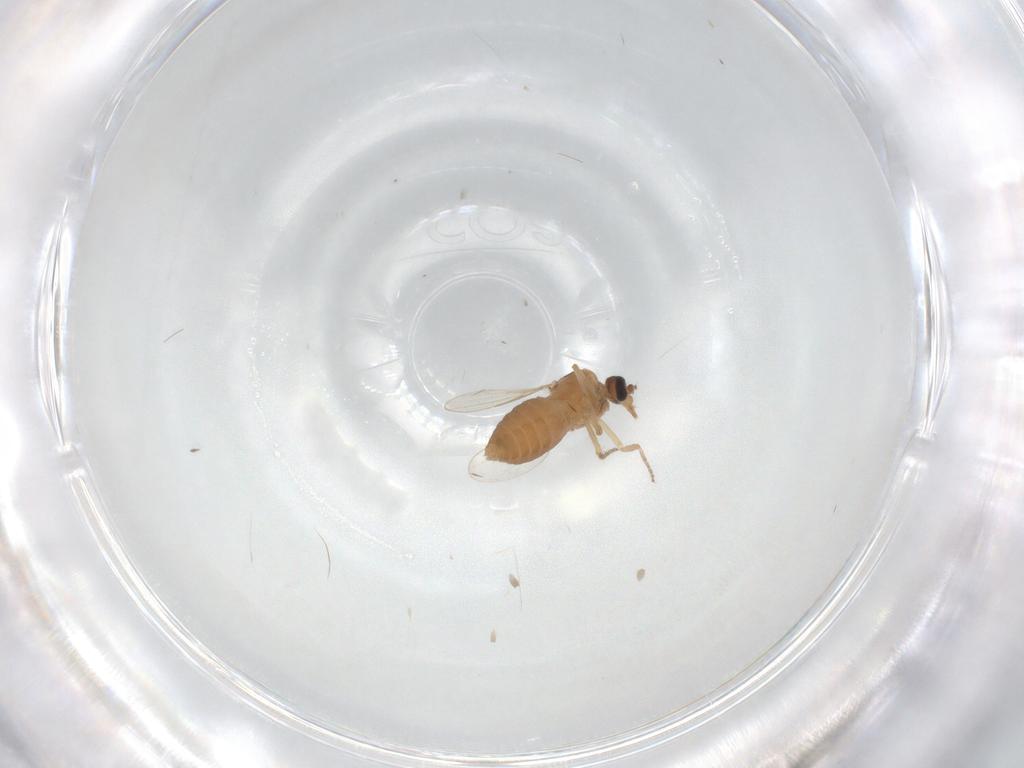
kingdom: Animalia
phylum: Arthropoda
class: Insecta
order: Diptera
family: Ceratopogonidae
